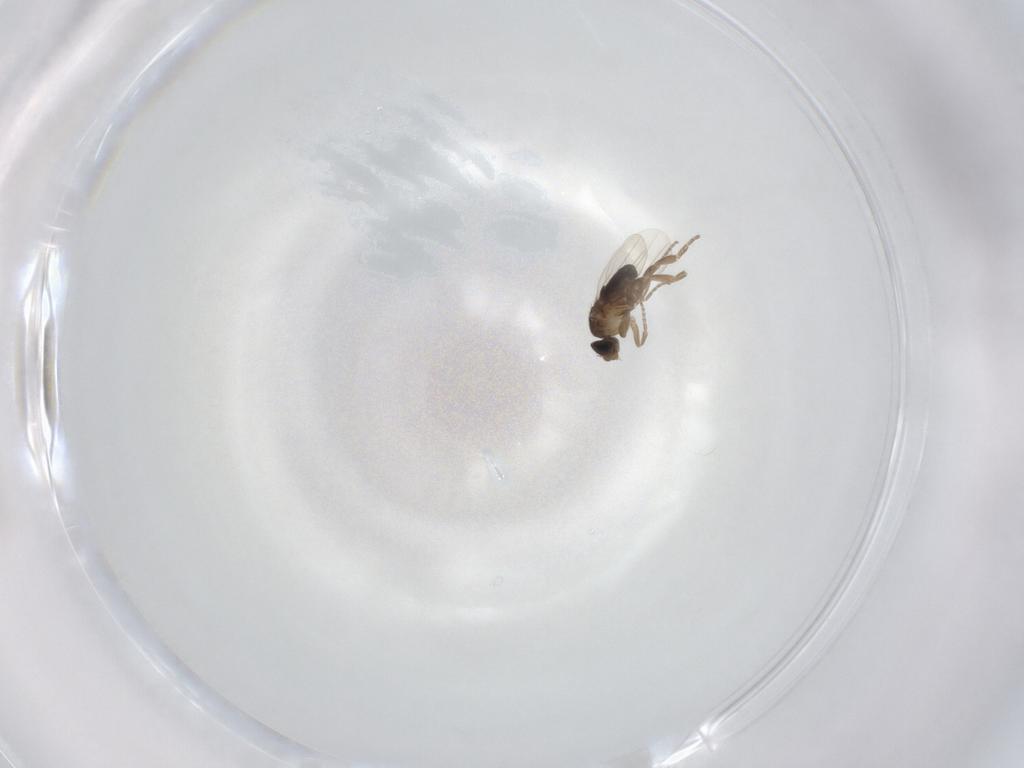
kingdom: Animalia
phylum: Arthropoda
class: Insecta
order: Diptera
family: Phoridae
